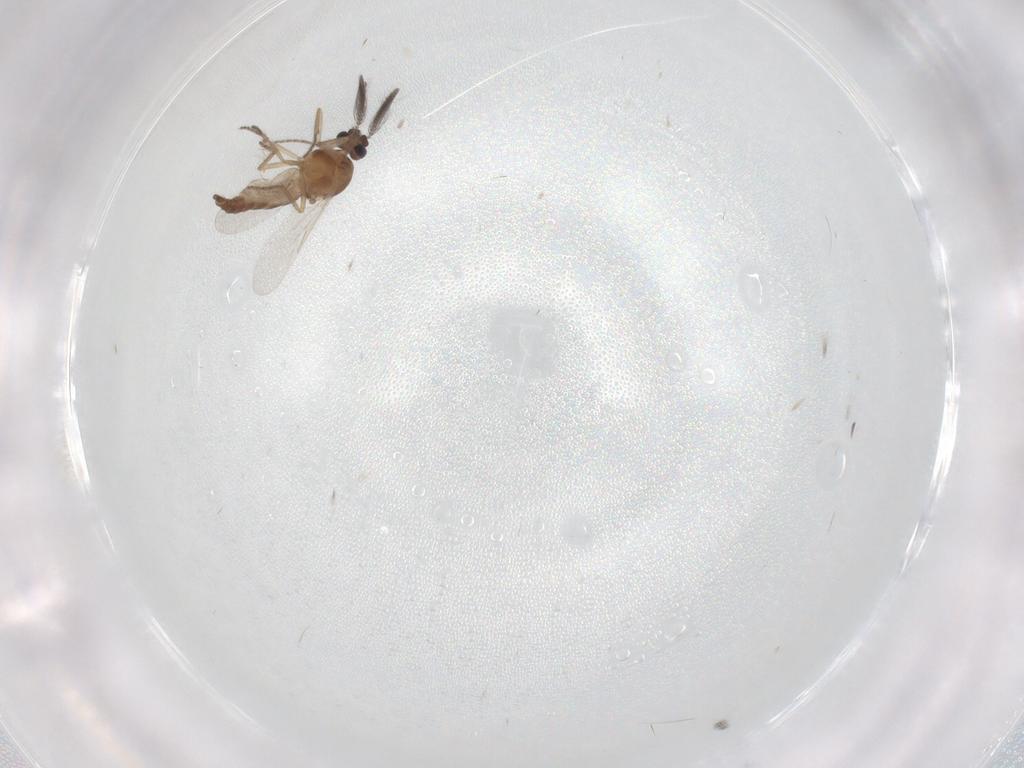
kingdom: Animalia
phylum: Arthropoda
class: Insecta
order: Diptera
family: Ceratopogonidae
